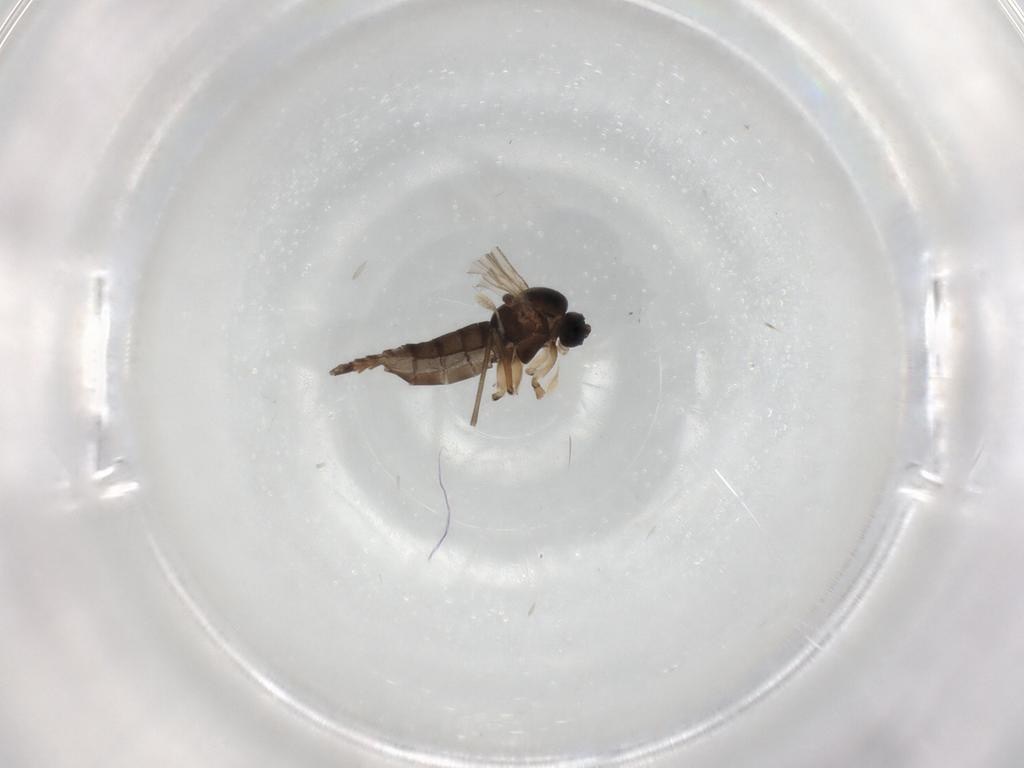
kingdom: Animalia
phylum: Arthropoda
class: Insecta
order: Diptera
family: Sciaridae
